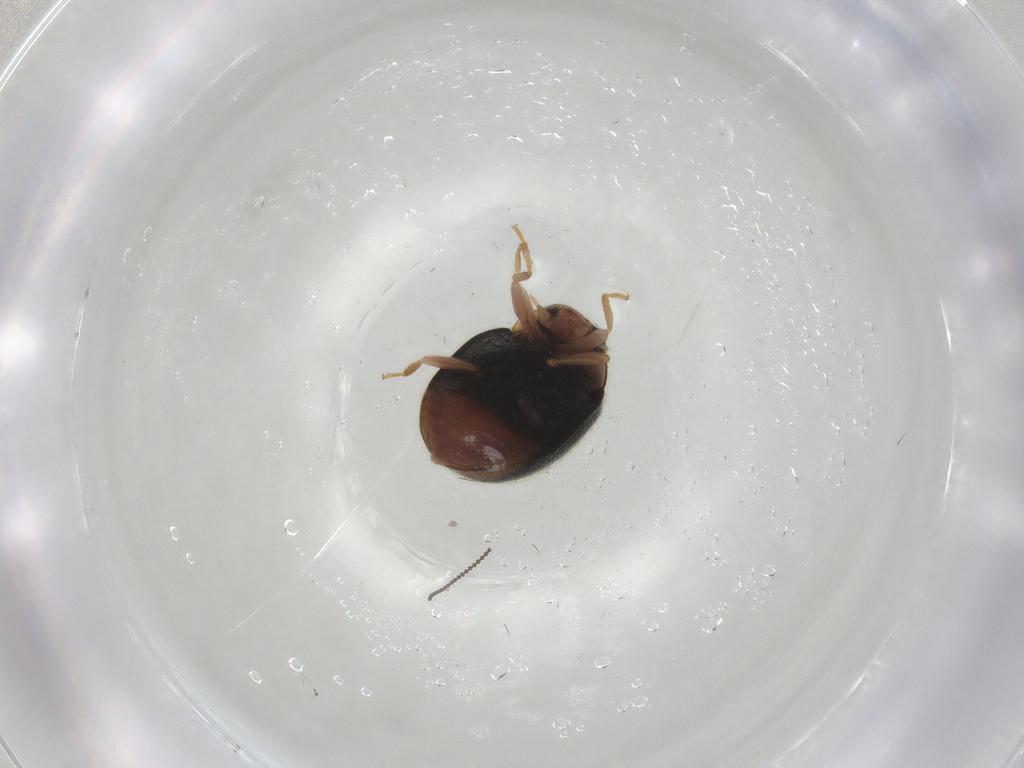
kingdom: Animalia
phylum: Arthropoda
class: Insecta
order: Coleoptera
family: Coccinellidae
